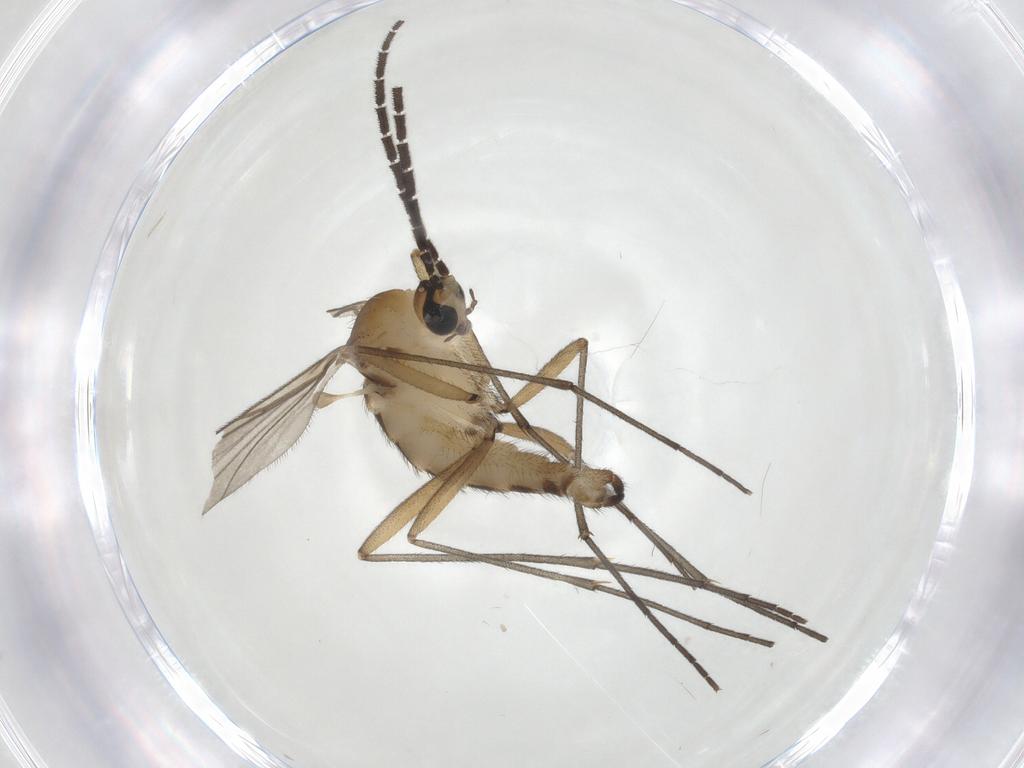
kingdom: Animalia
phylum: Arthropoda
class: Insecta
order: Diptera
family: Sciaridae
